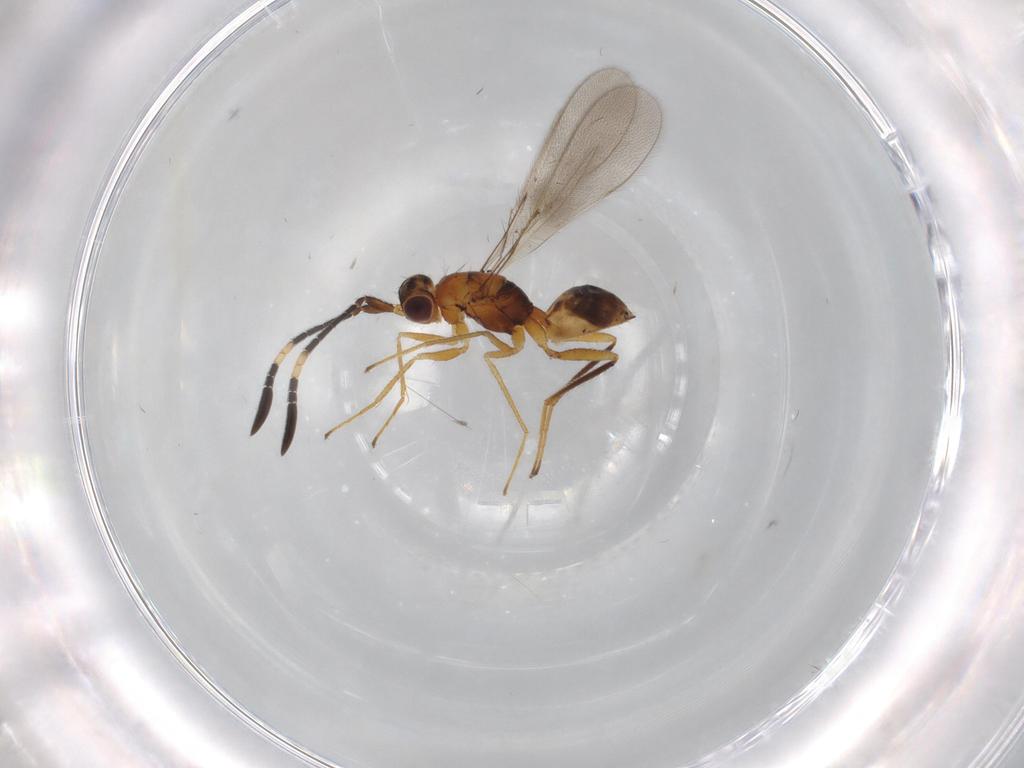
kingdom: Animalia
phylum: Arthropoda
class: Insecta
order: Hymenoptera
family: Mymaridae
